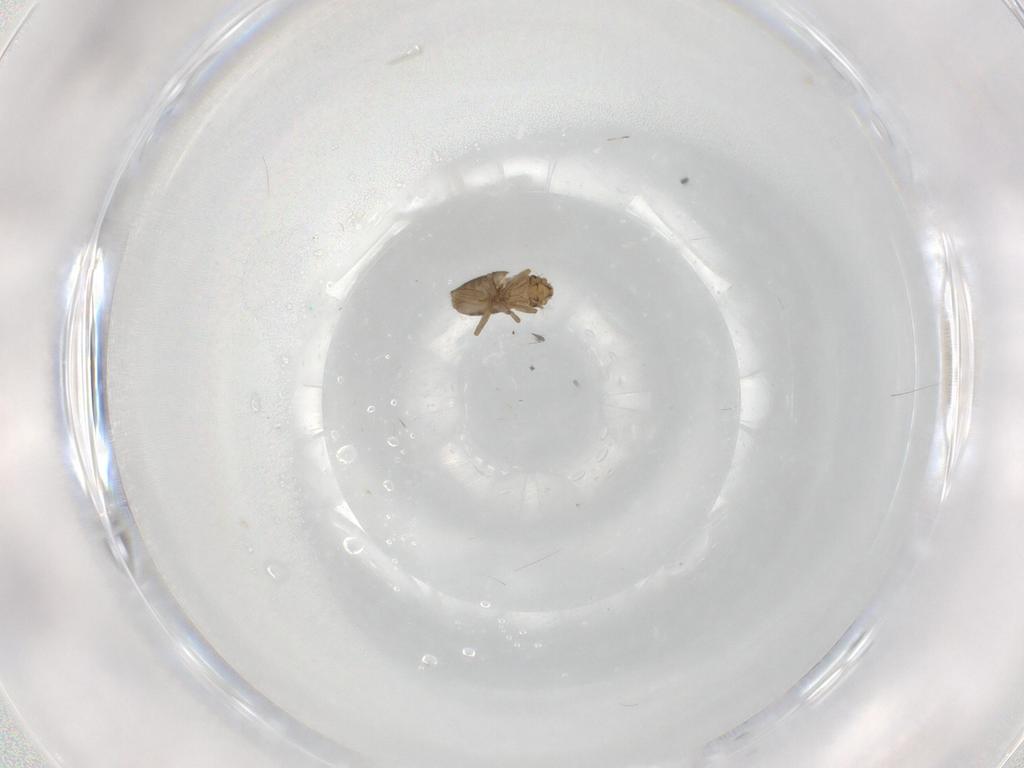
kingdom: Animalia
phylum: Arthropoda
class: Insecta
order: Diptera
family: Phoridae
